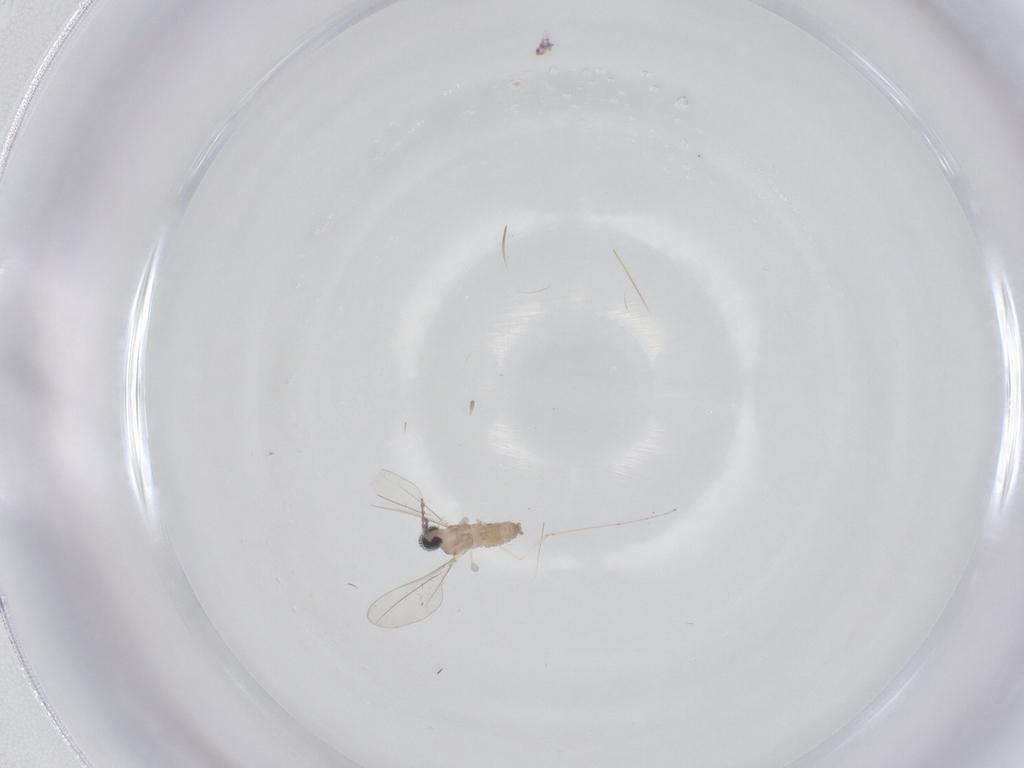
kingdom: Animalia
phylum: Arthropoda
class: Insecta
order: Diptera
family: Cecidomyiidae
